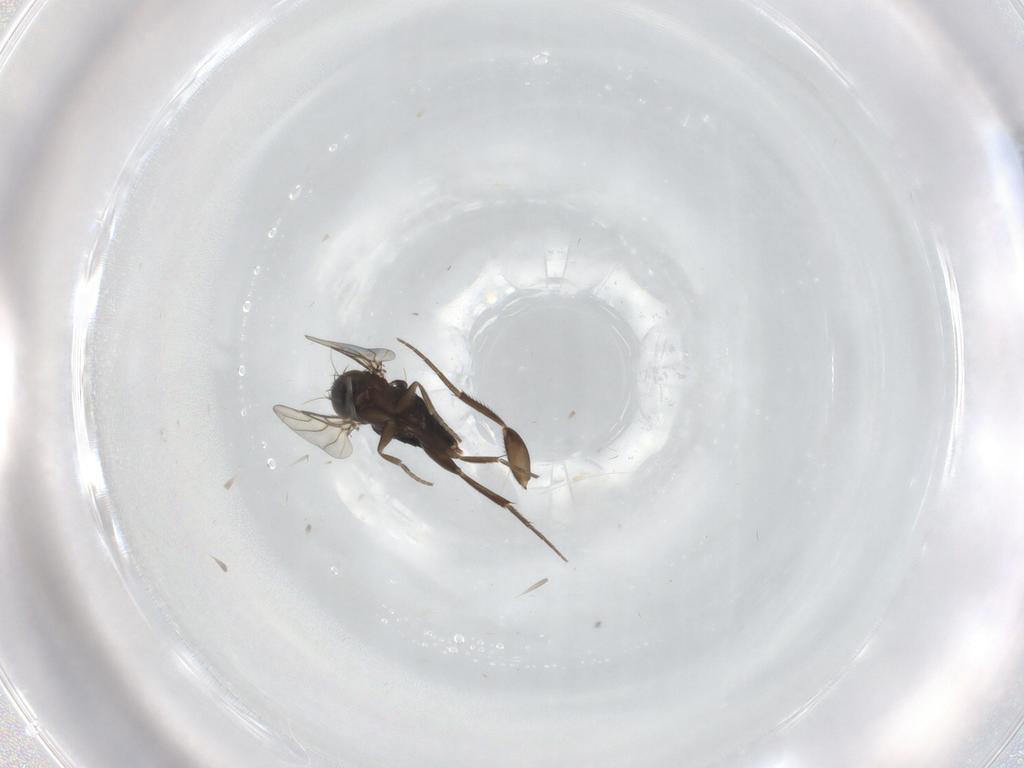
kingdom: Animalia
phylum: Arthropoda
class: Insecta
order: Diptera
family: Phoridae
